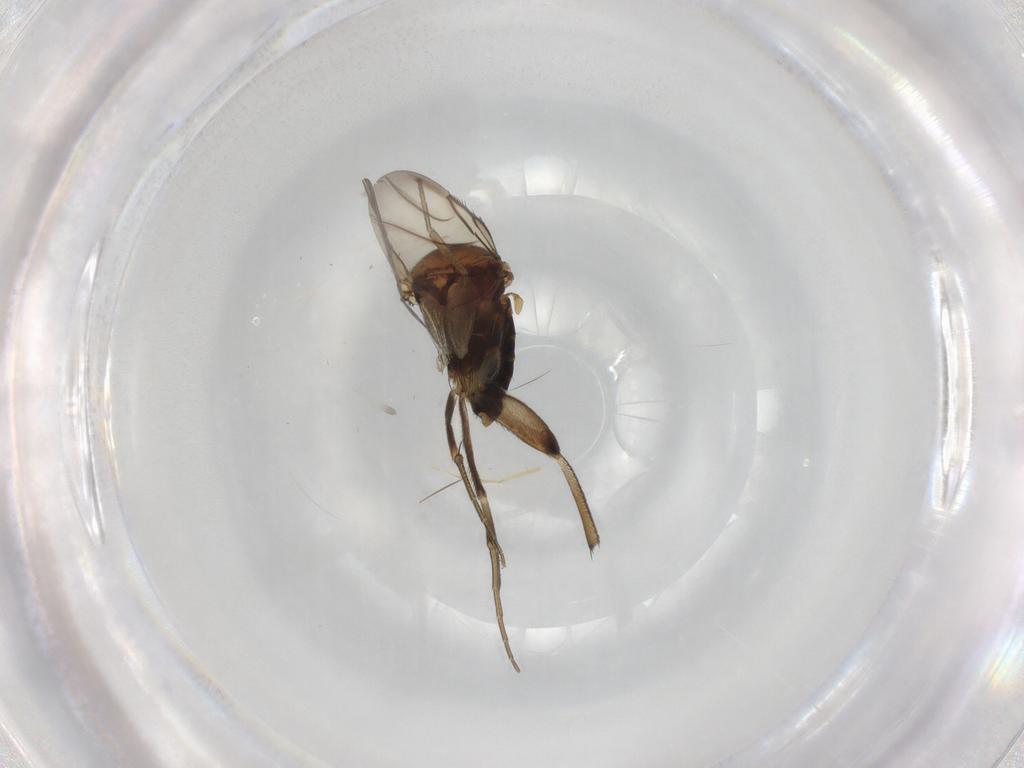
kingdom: Animalia
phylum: Arthropoda
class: Insecta
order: Diptera
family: Phoridae
